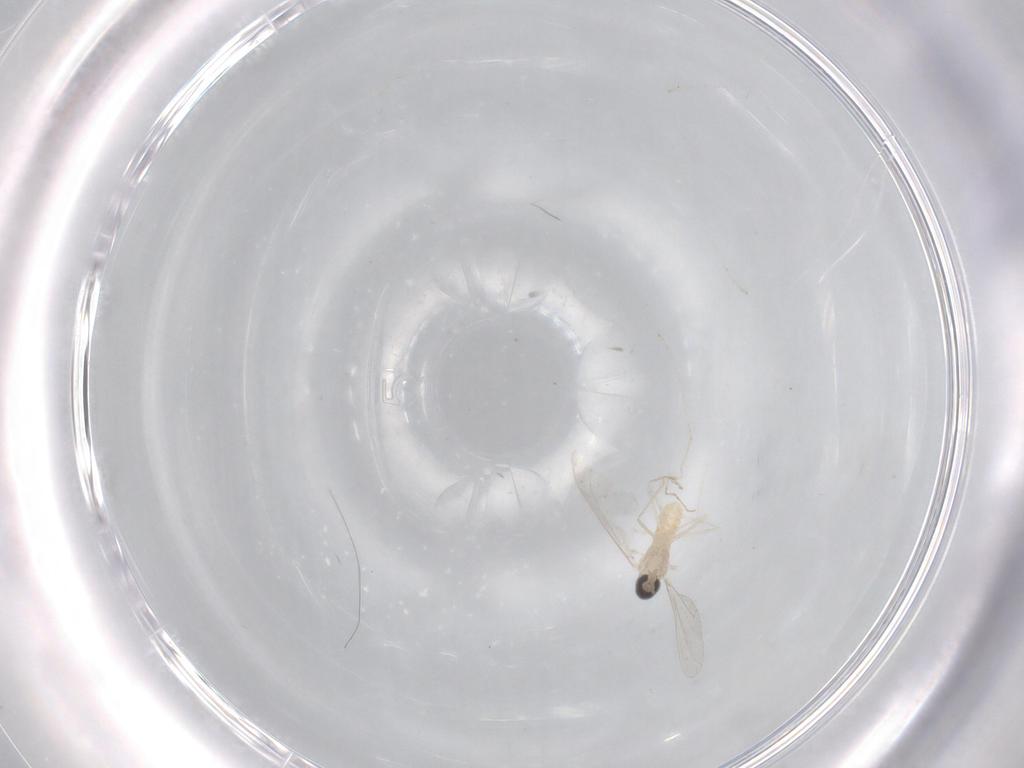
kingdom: Animalia
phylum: Arthropoda
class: Insecta
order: Diptera
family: Cecidomyiidae
